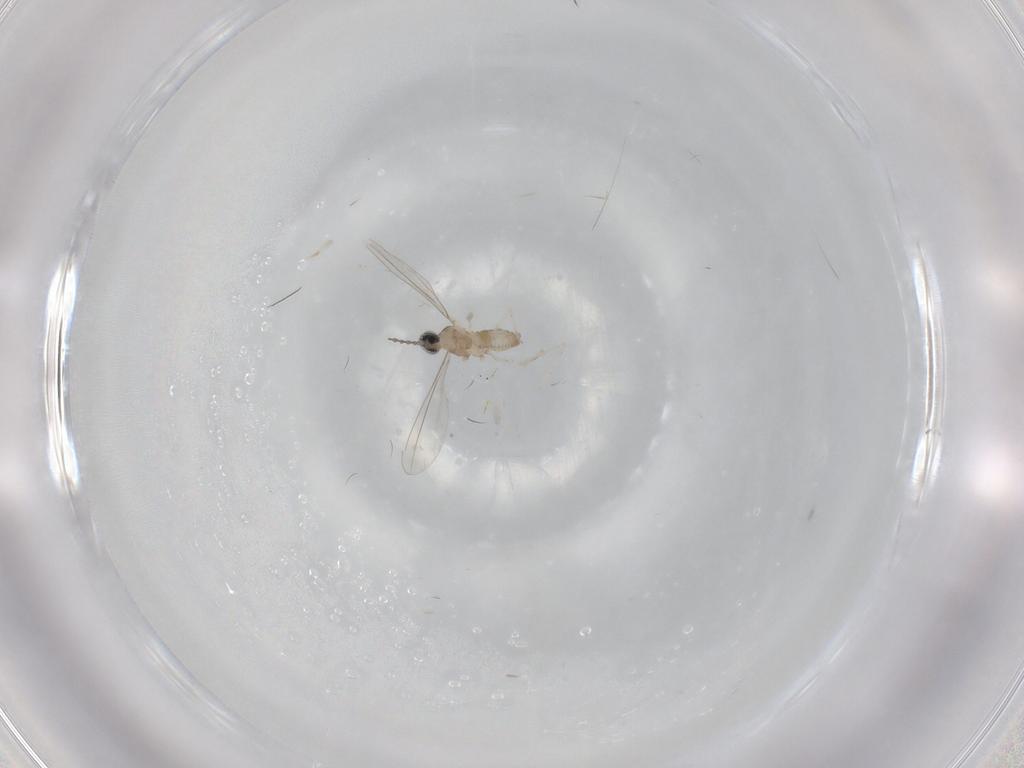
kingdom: Animalia
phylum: Arthropoda
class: Insecta
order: Diptera
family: Cecidomyiidae
